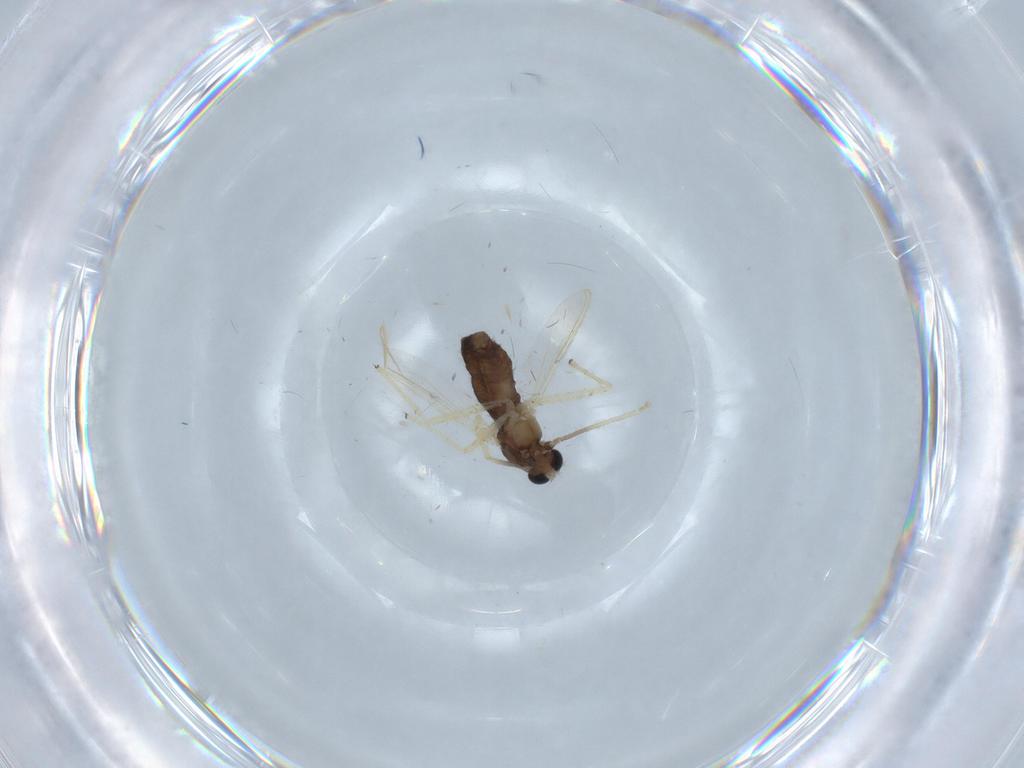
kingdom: Animalia
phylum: Arthropoda
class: Insecta
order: Diptera
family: Chironomidae
